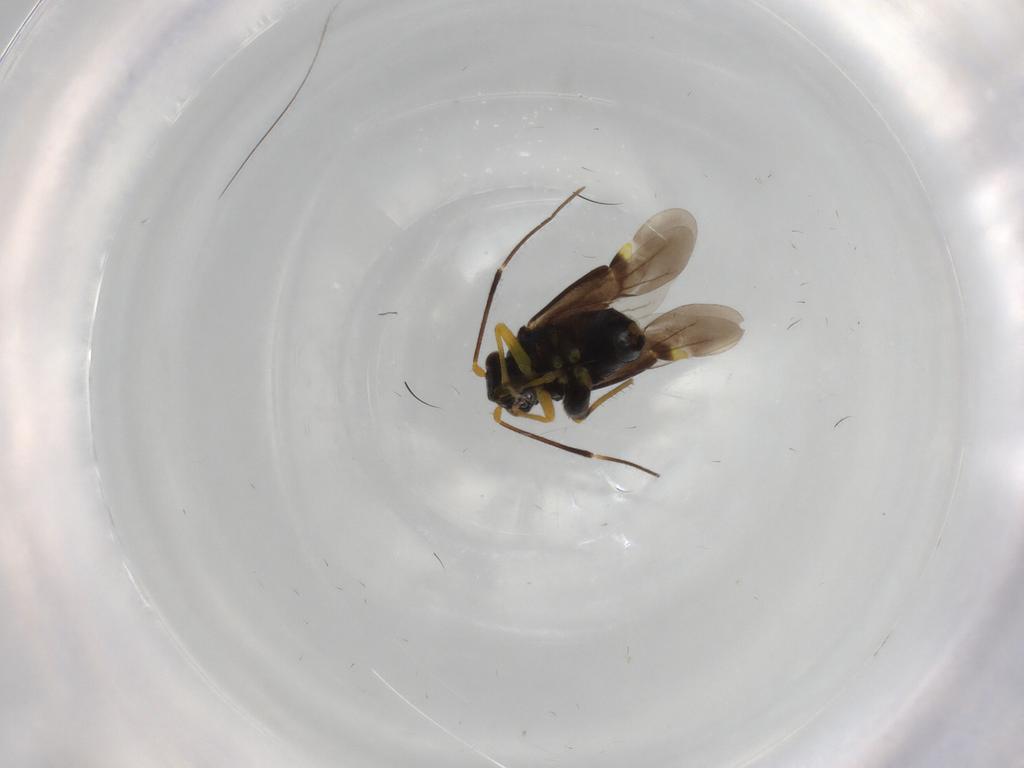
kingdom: Animalia
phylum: Arthropoda
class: Insecta
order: Hemiptera
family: Miridae
